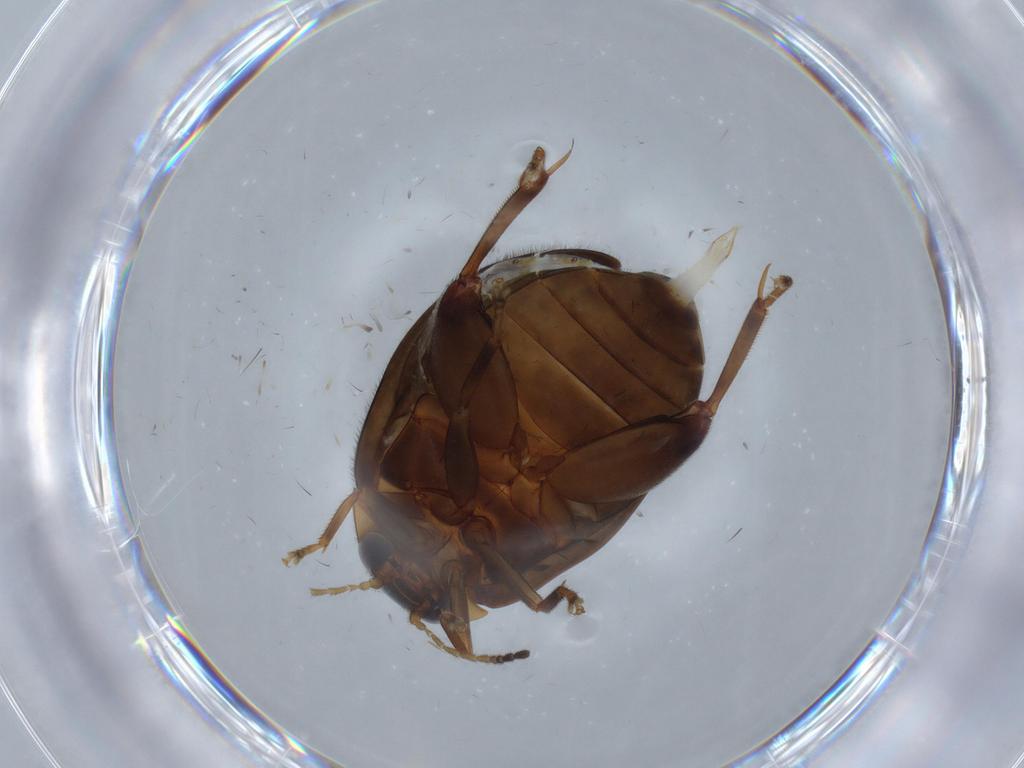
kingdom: Animalia
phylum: Arthropoda
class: Insecta
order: Coleoptera
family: Scirtidae
